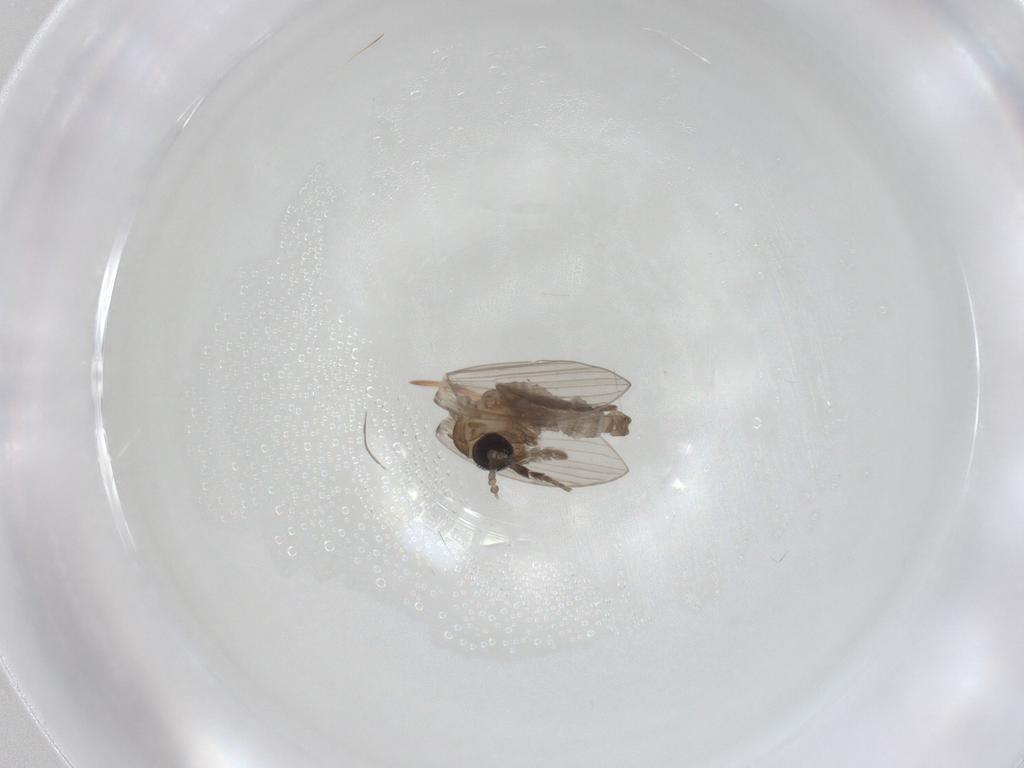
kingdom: Animalia
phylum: Arthropoda
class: Insecta
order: Diptera
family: Psychodidae
